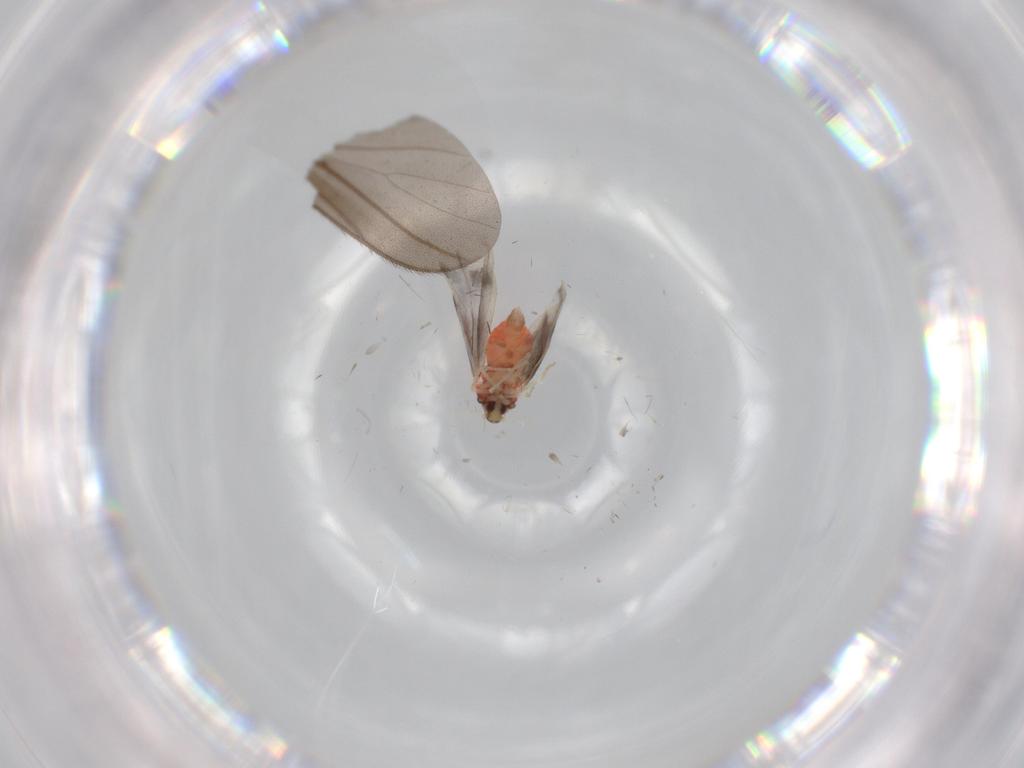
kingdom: Animalia
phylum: Arthropoda
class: Insecta
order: Hemiptera
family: Aleyrodidae
